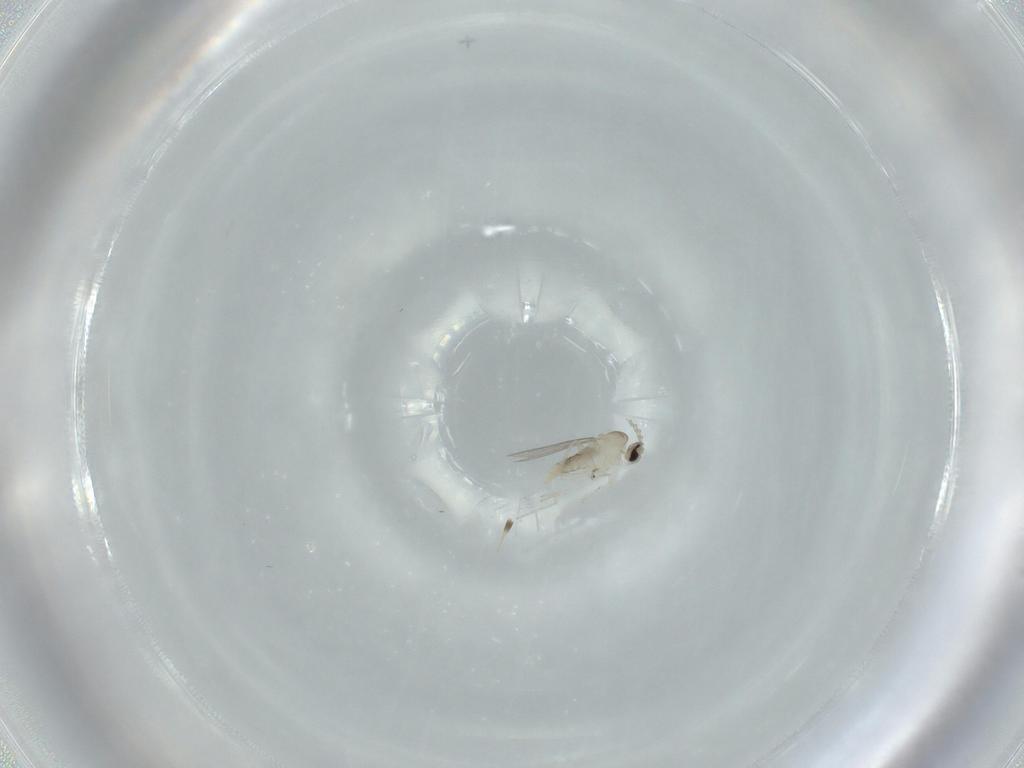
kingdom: Animalia
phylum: Arthropoda
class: Insecta
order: Diptera
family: Cecidomyiidae
